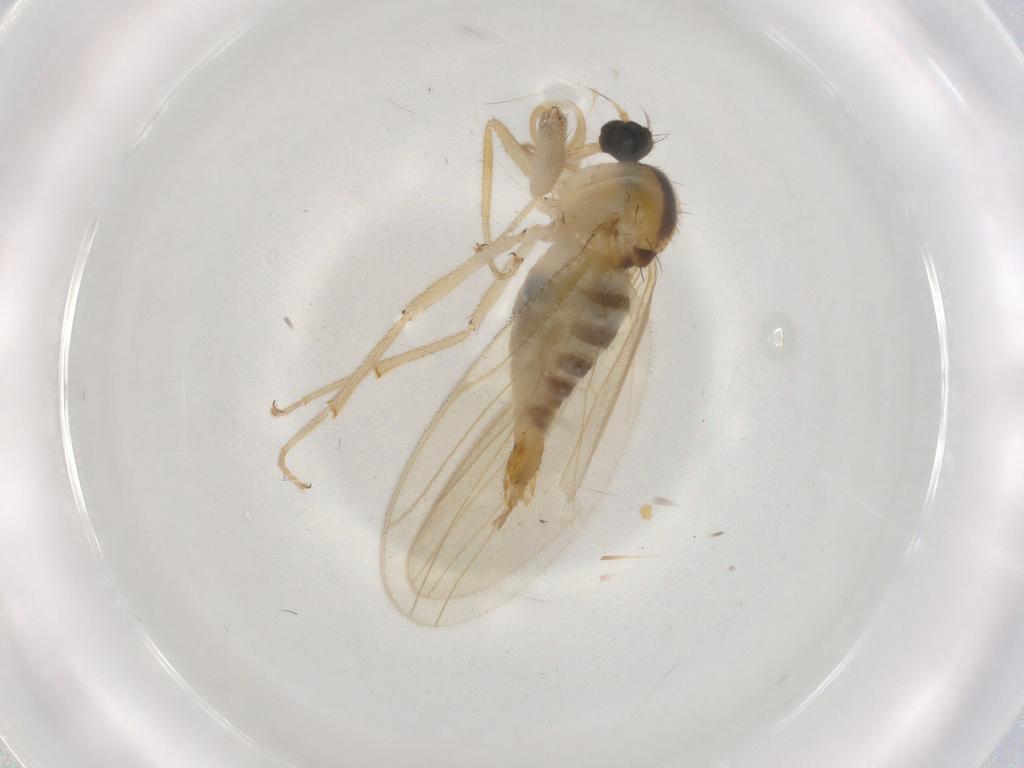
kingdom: Animalia
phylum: Arthropoda
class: Insecta
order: Diptera
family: Hybotidae
